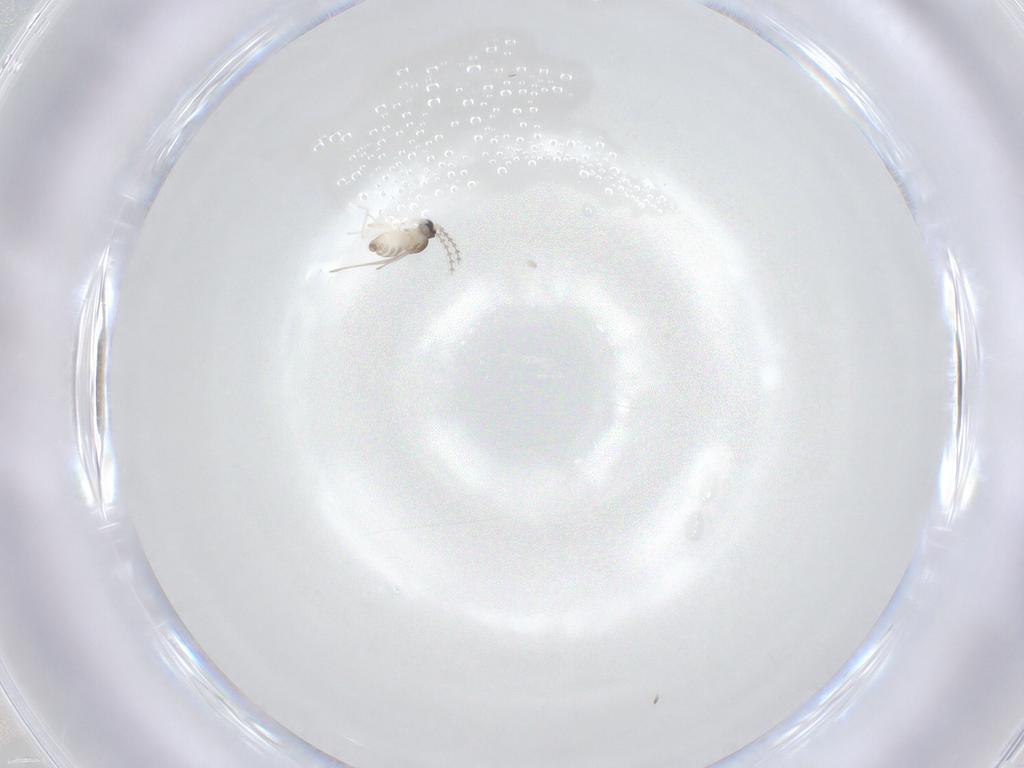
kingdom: Animalia
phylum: Arthropoda
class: Insecta
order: Diptera
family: Cecidomyiidae
